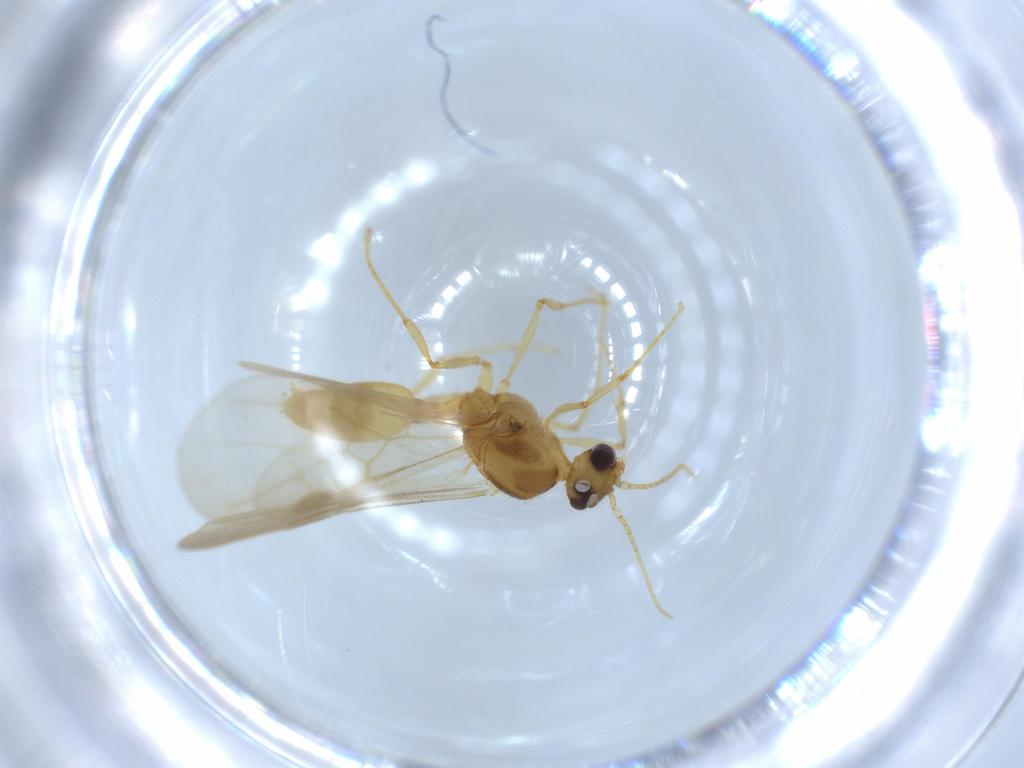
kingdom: Animalia
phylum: Arthropoda
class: Insecta
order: Hymenoptera
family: Formicidae
